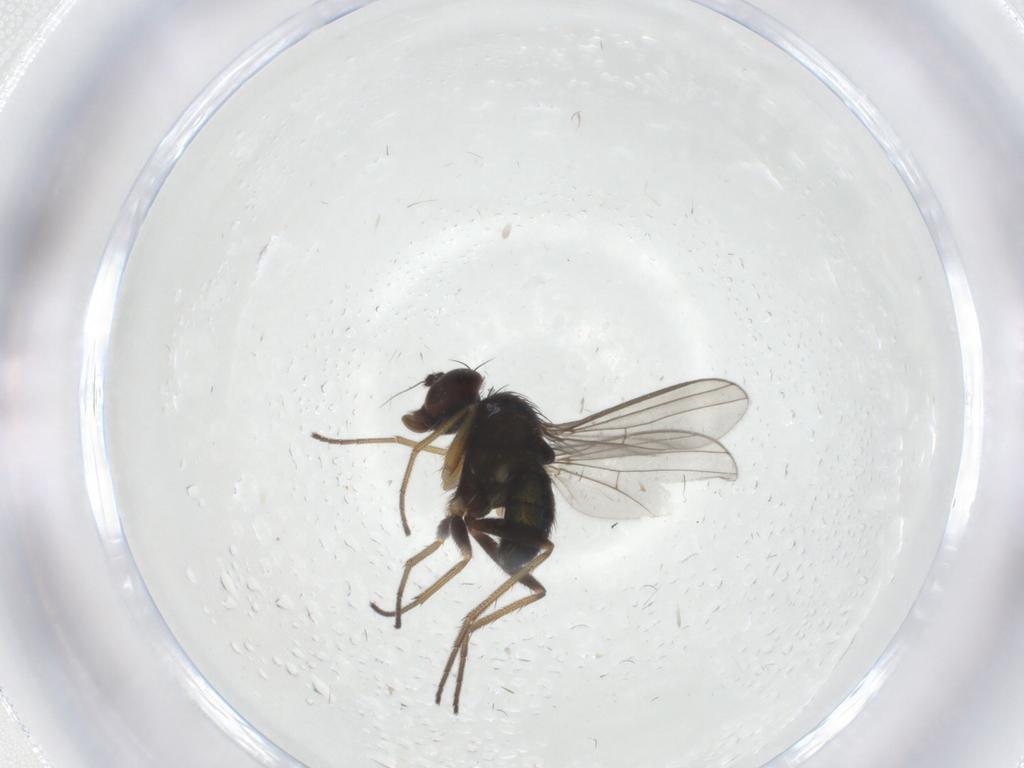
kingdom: Animalia
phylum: Arthropoda
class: Insecta
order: Diptera
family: Dolichopodidae
